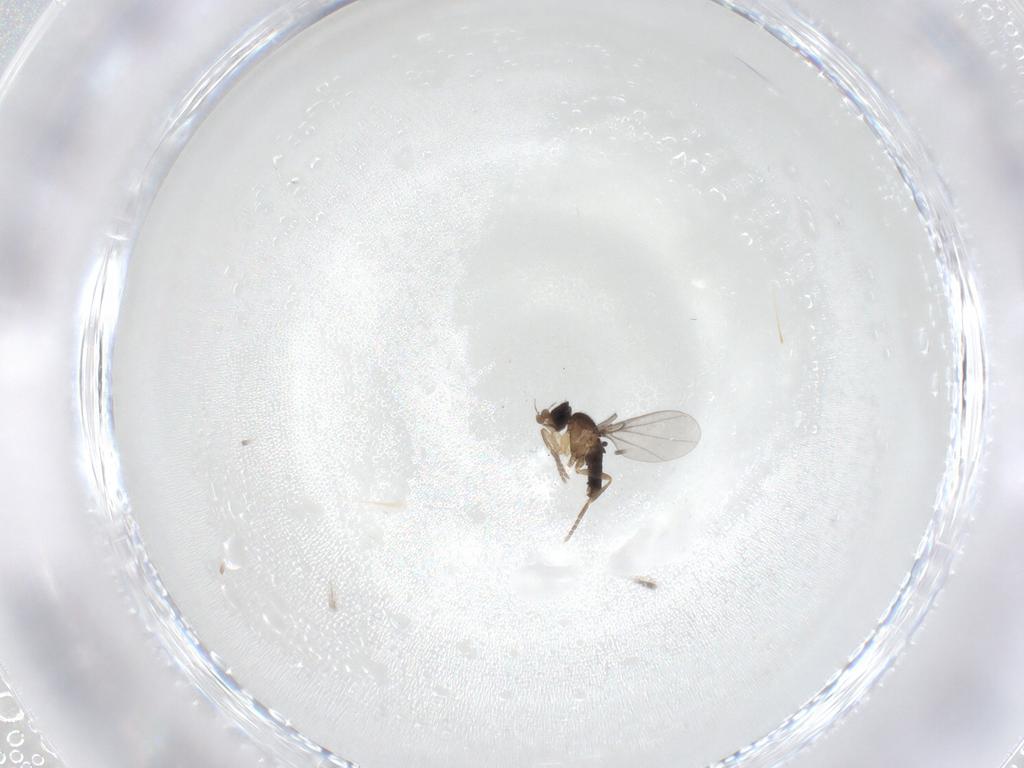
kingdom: Animalia
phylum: Arthropoda
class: Insecta
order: Diptera
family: Phoridae
